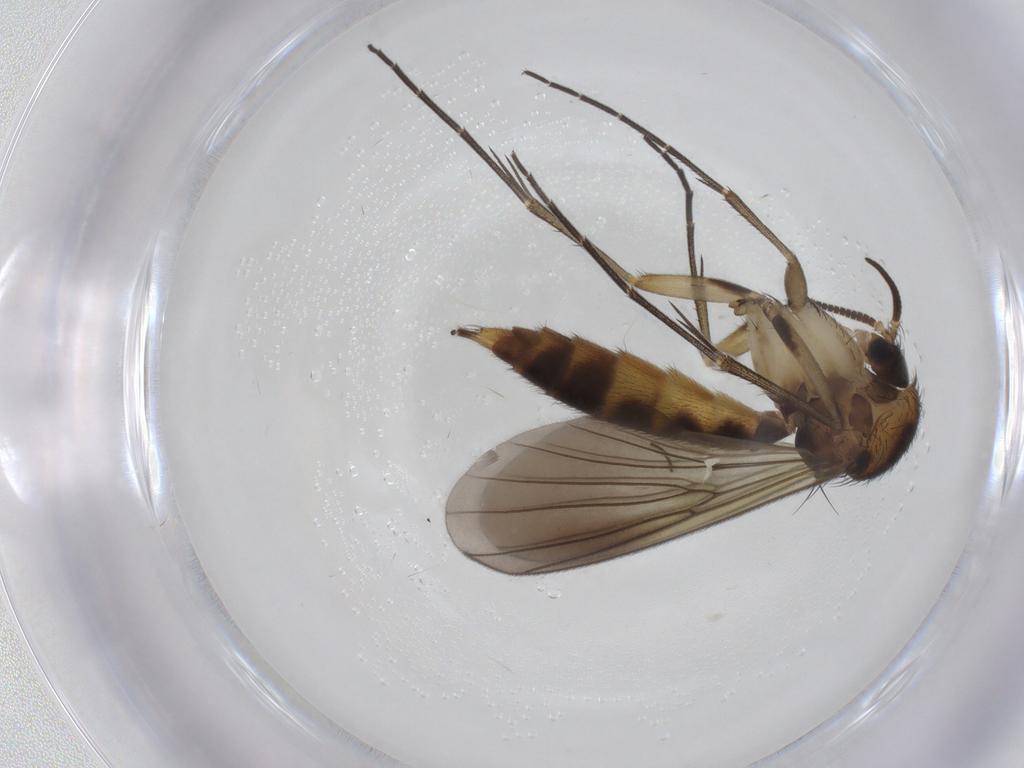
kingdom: Animalia
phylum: Arthropoda
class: Insecta
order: Diptera
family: Mycetophilidae
